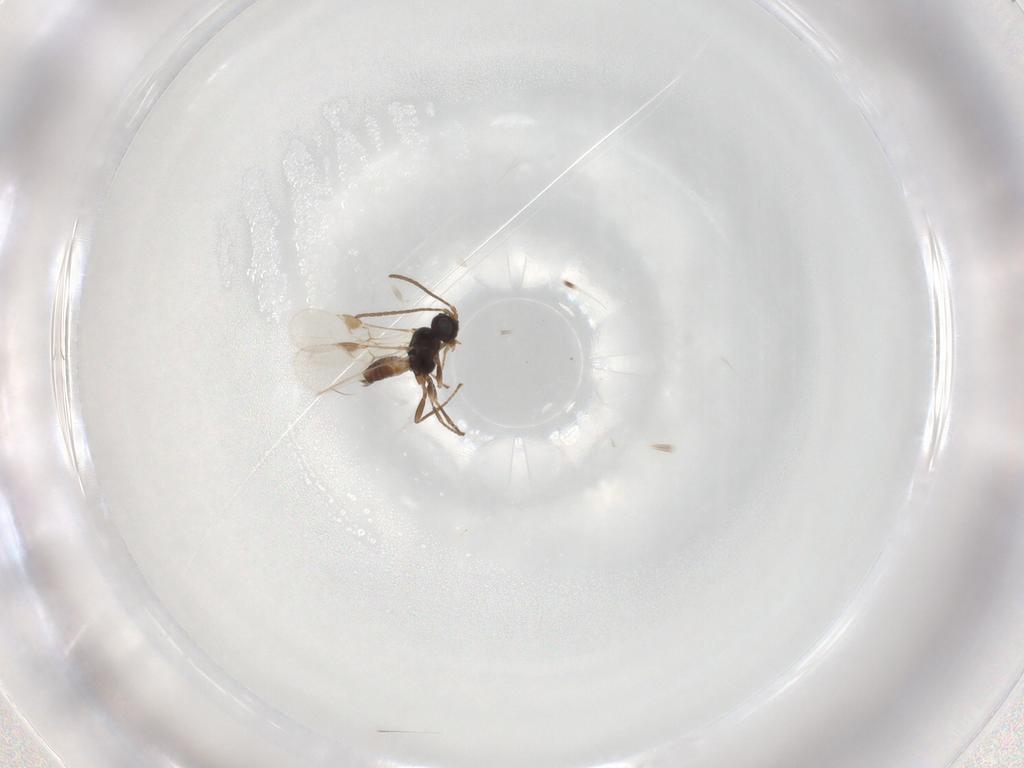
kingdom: Animalia
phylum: Arthropoda
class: Insecta
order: Hymenoptera
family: Braconidae
